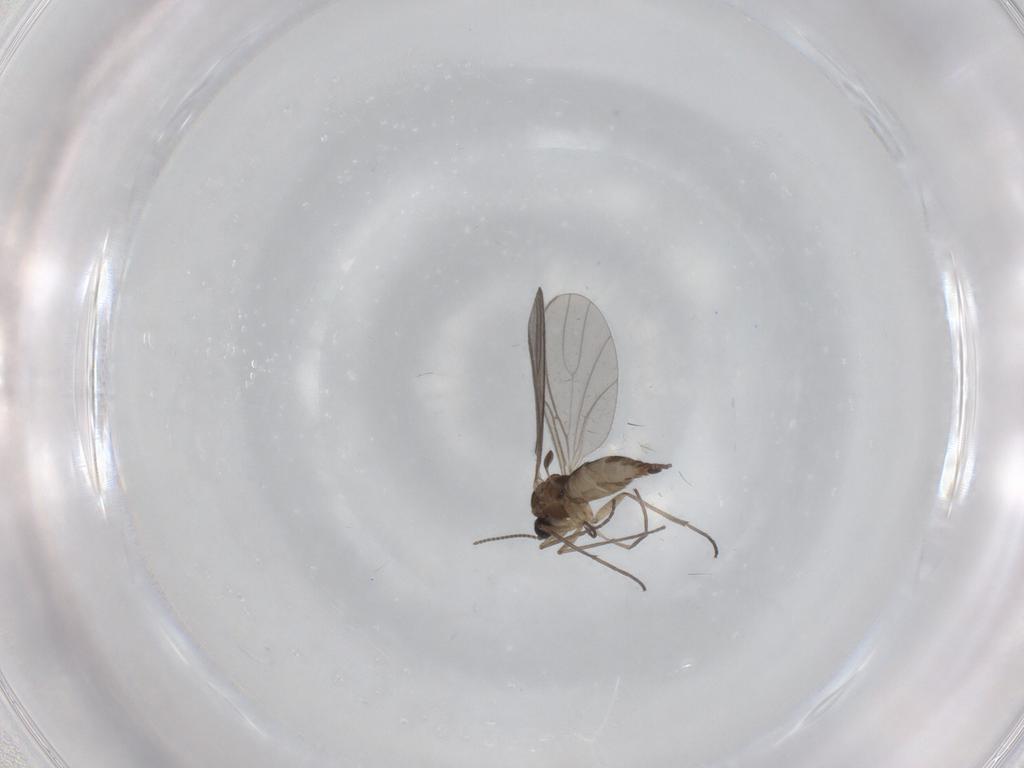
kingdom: Animalia
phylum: Arthropoda
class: Insecta
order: Diptera
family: Sciaridae
